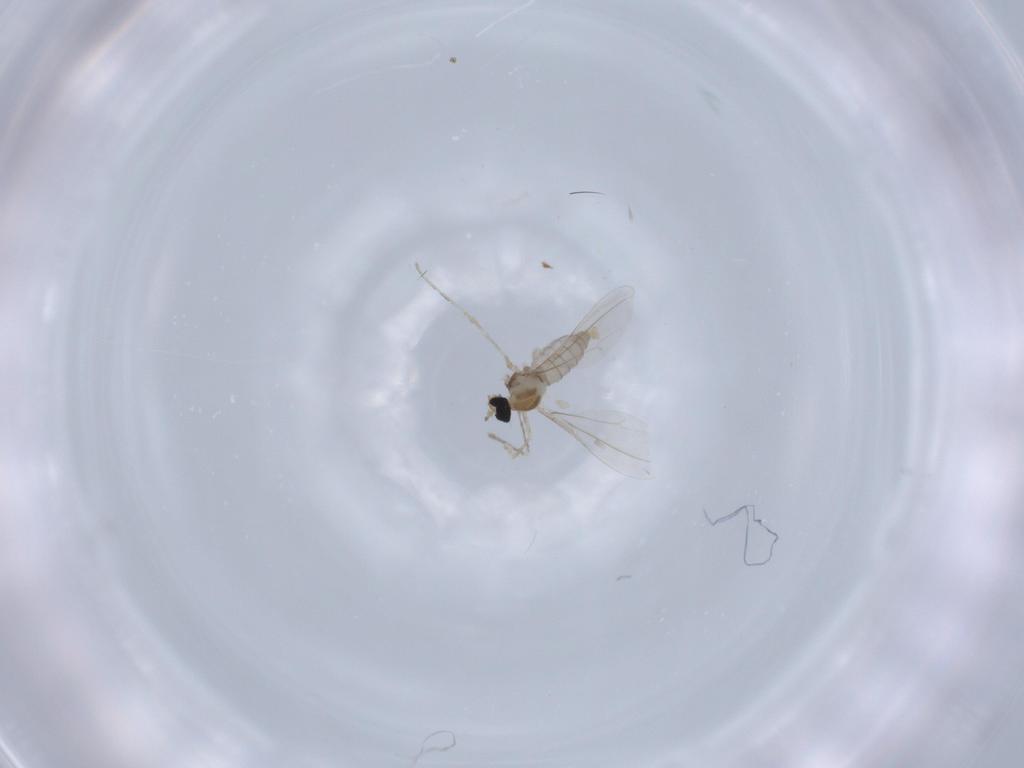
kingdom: Animalia
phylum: Arthropoda
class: Insecta
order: Diptera
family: Cecidomyiidae
